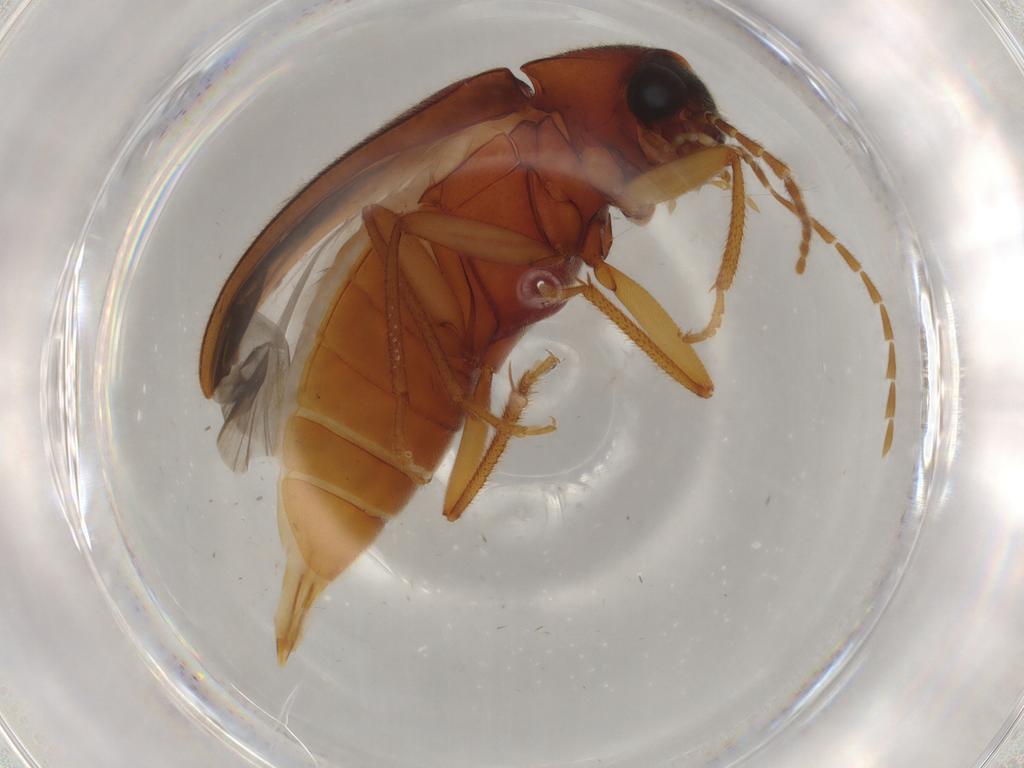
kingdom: Animalia
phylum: Arthropoda
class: Insecta
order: Coleoptera
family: Ptilodactylidae
